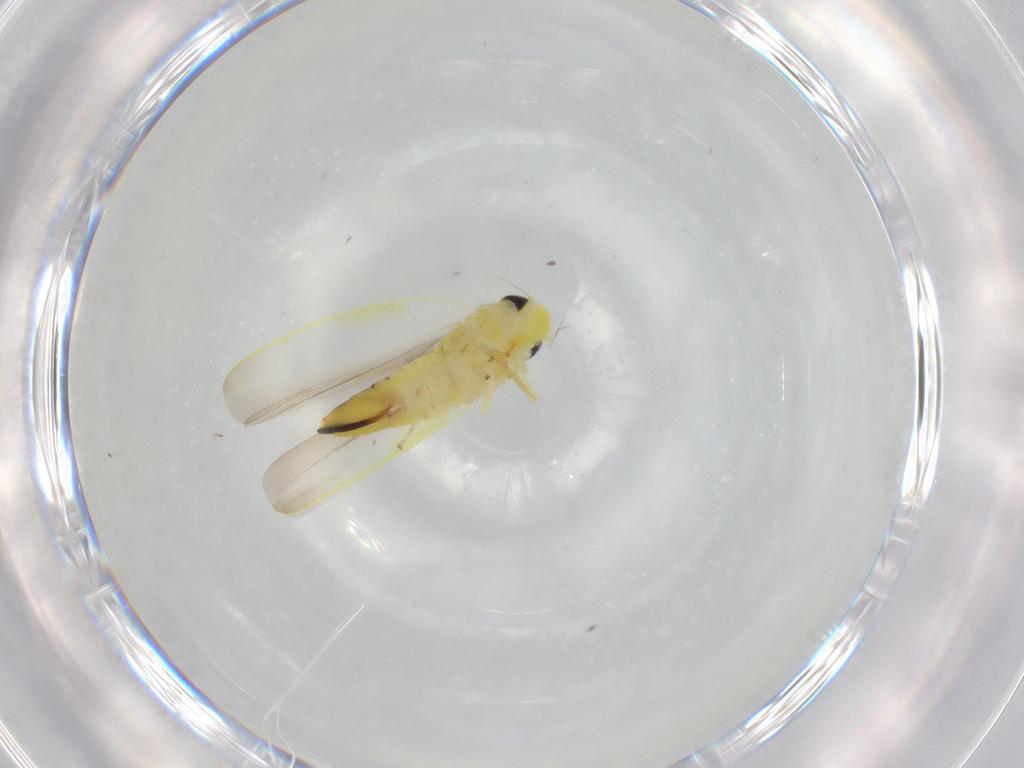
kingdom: Animalia
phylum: Arthropoda
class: Insecta
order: Hemiptera
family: Cicadellidae
